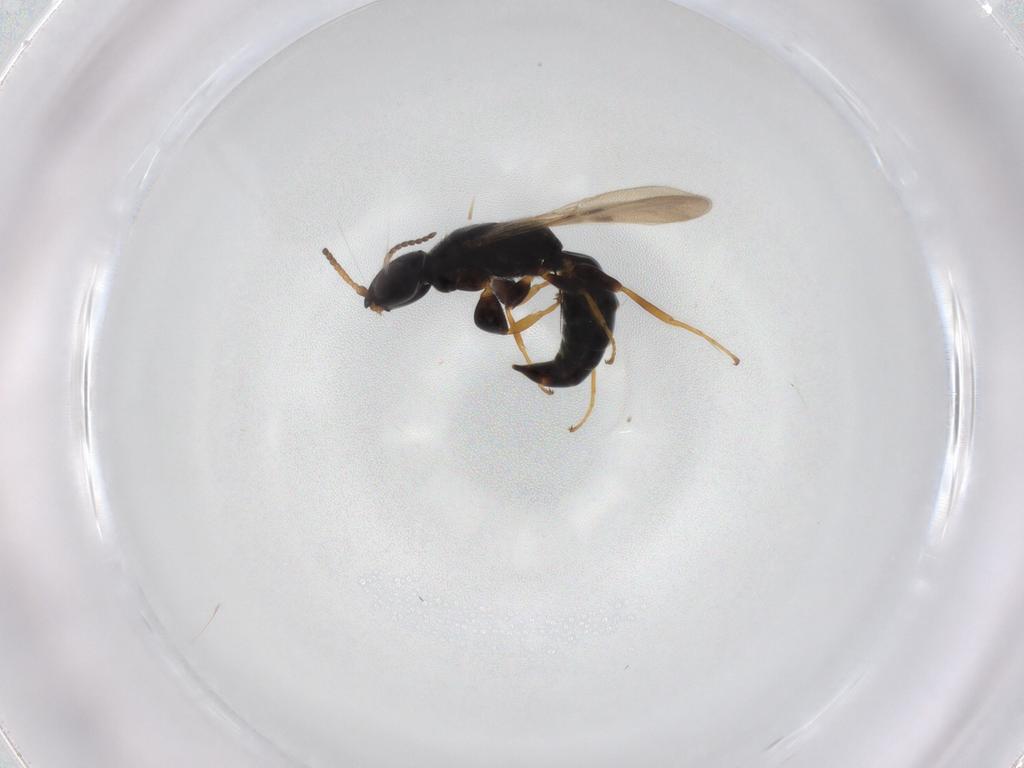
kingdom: Animalia
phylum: Arthropoda
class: Insecta
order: Hymenoptera
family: Bethylidae
